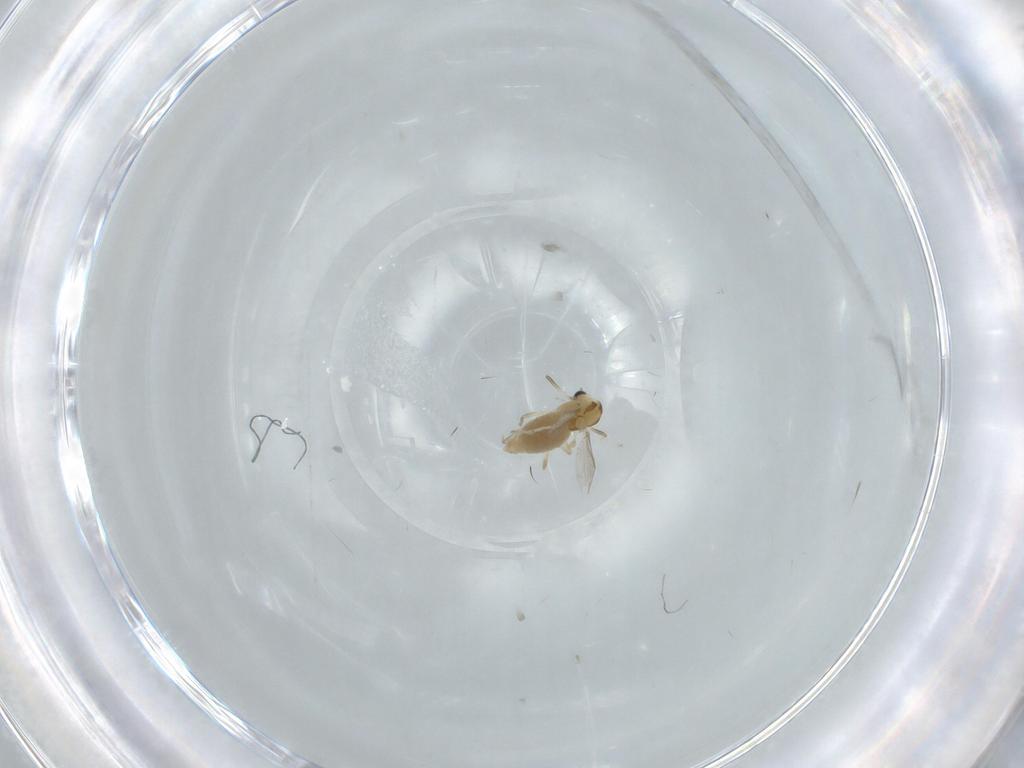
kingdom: Animalia
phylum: Arthropoda
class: Insecta
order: Diptera
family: Chironomidae
